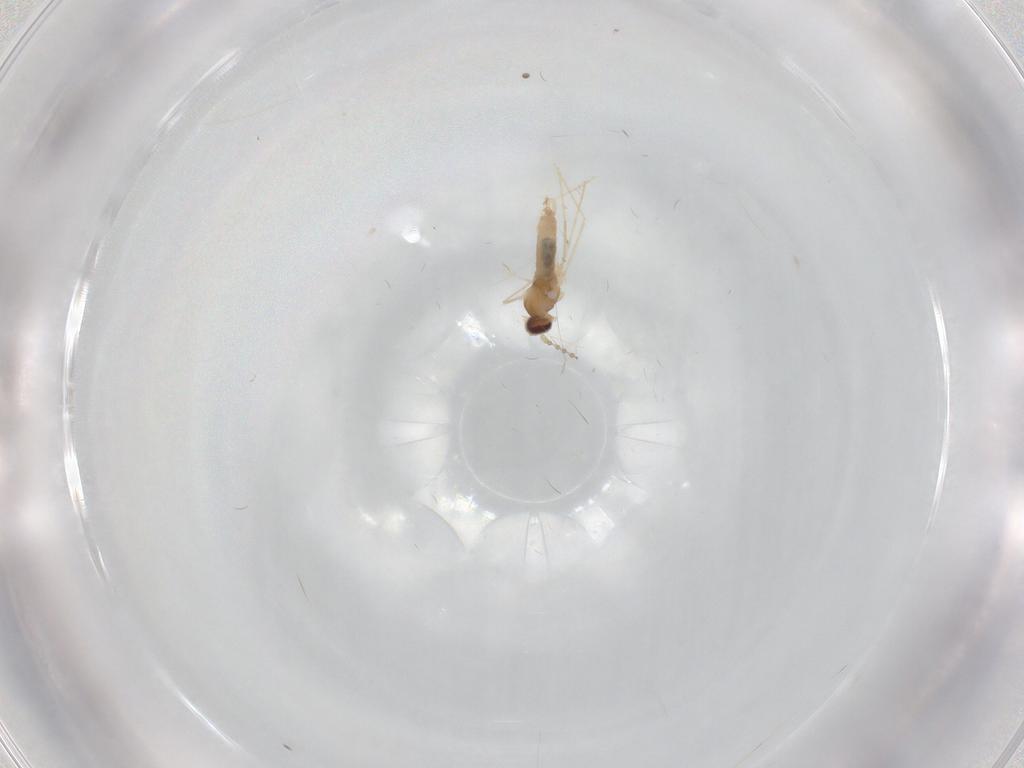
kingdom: Animalia
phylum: Arthropoda
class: Insecta
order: Diptera
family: Cecidomyiidae
